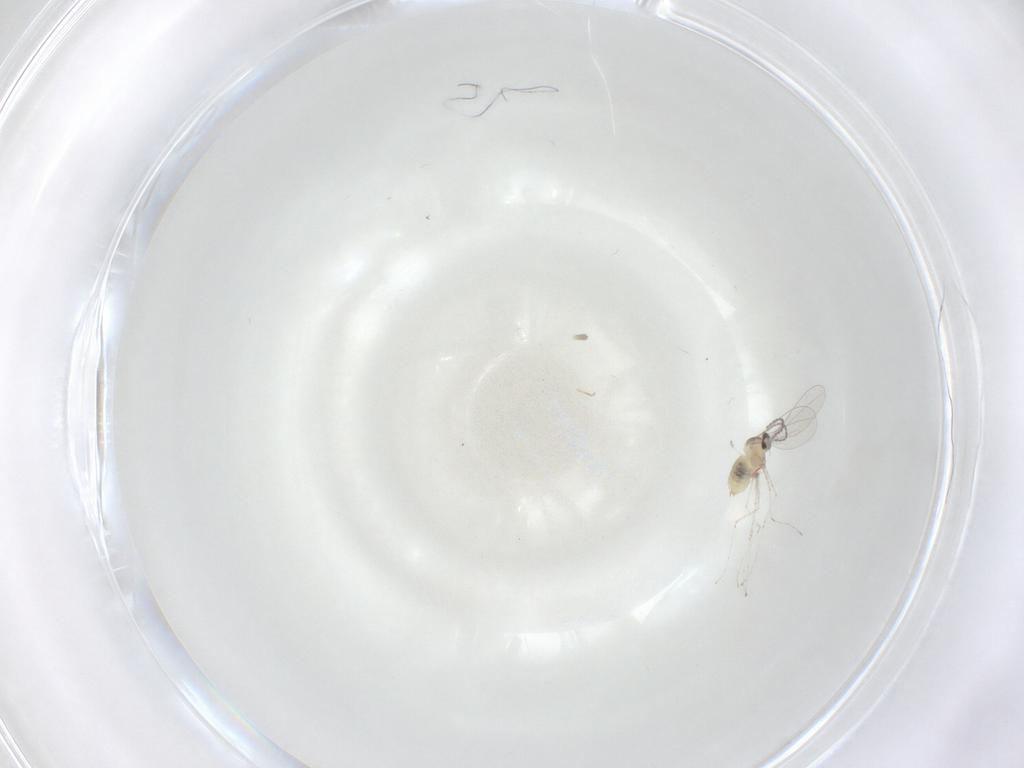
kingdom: Animalia
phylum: Arthropoda
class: Insecta
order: Diptera
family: Cecidomyiidae
